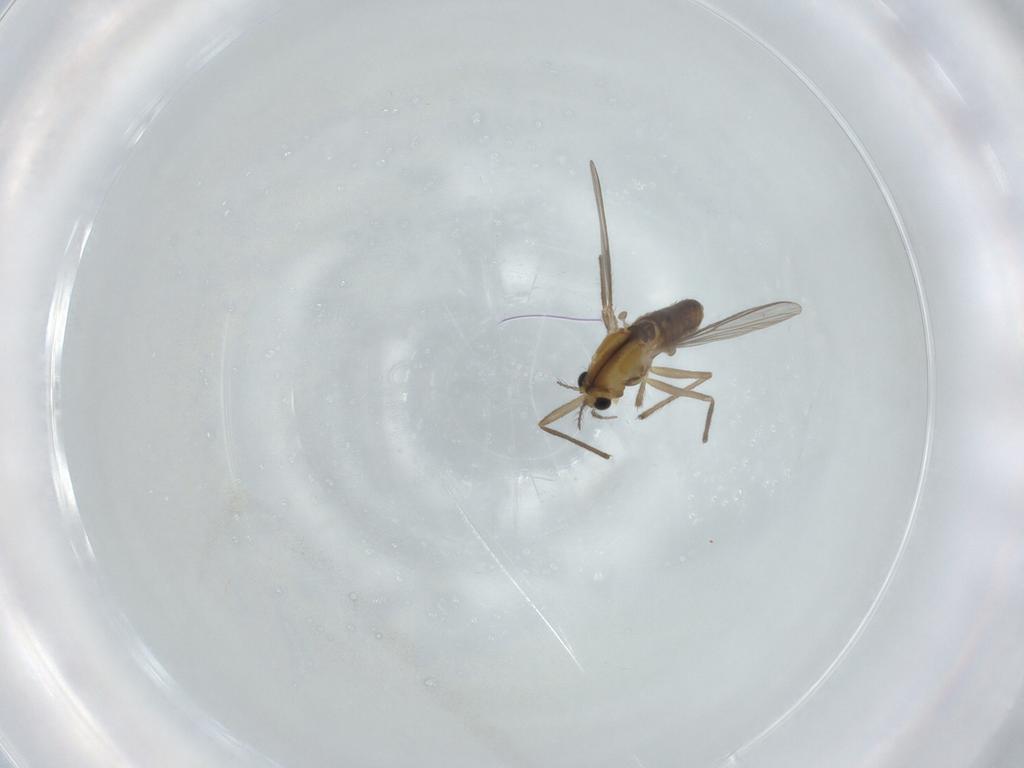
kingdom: Animalia
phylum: Arthropoda
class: Insecta
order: Diptera
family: Chironomidae
